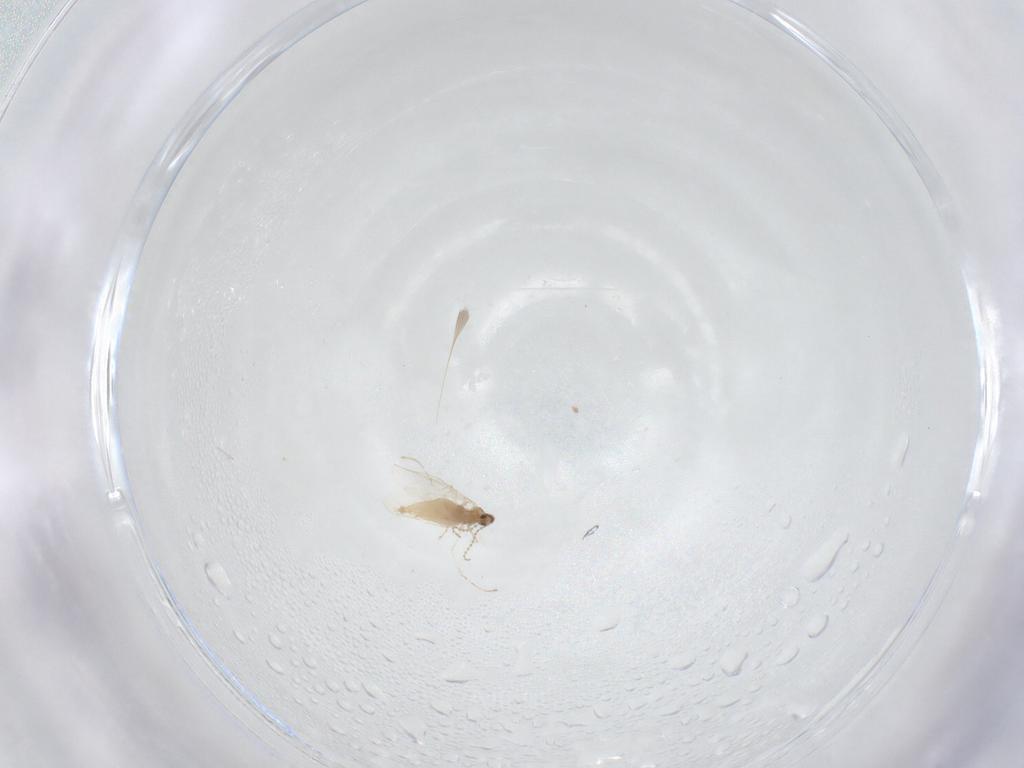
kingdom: Animalia
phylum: Arthropoda
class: Insecta
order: Diptera
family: Cecidomyiidae
